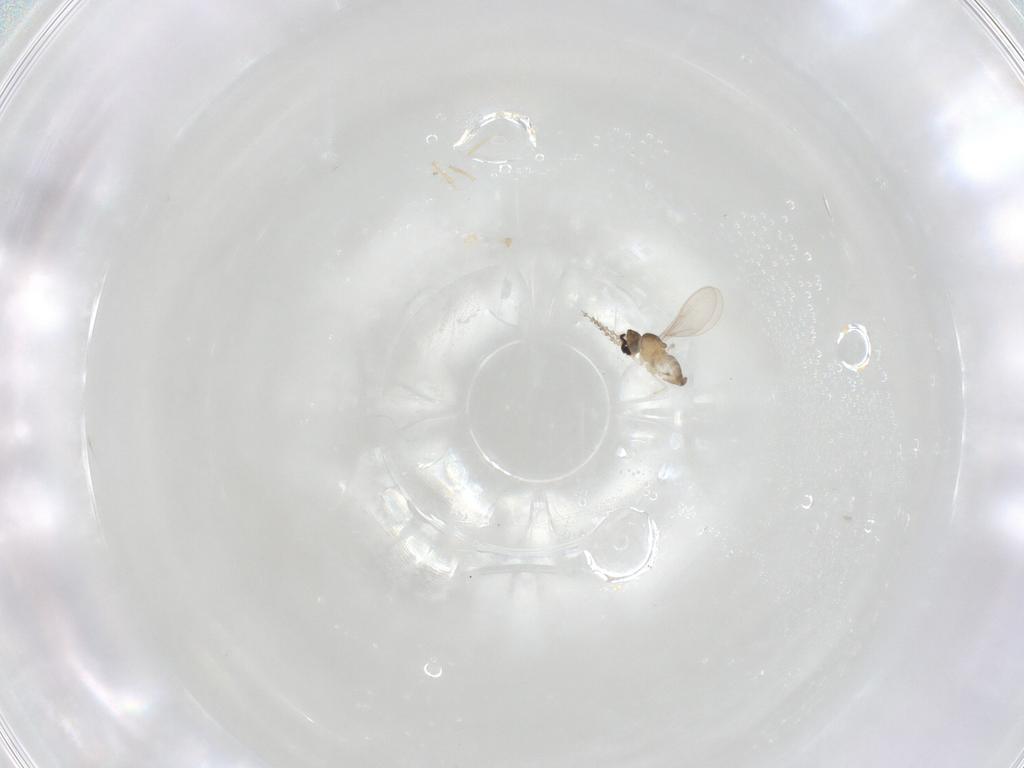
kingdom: Animalia
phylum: Arthropoda
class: Insecta
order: Diptera
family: Cecidomyiidae
